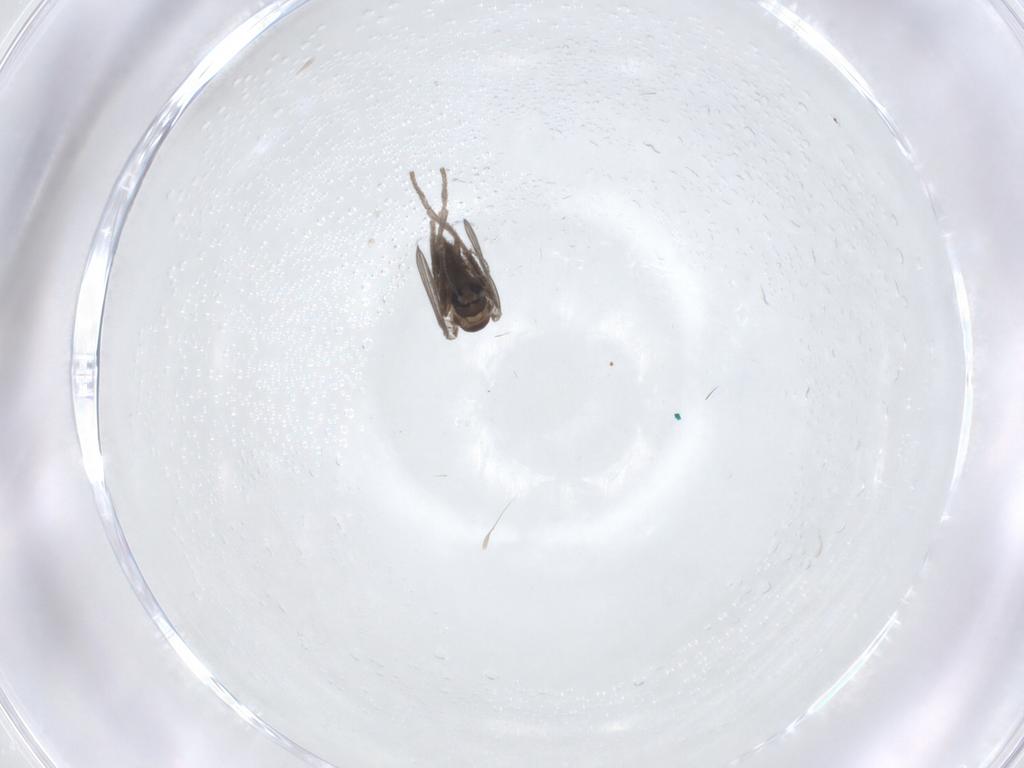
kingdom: Animalia
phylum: Arthropoda
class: Insecta
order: Diptera
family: Psychodidae
